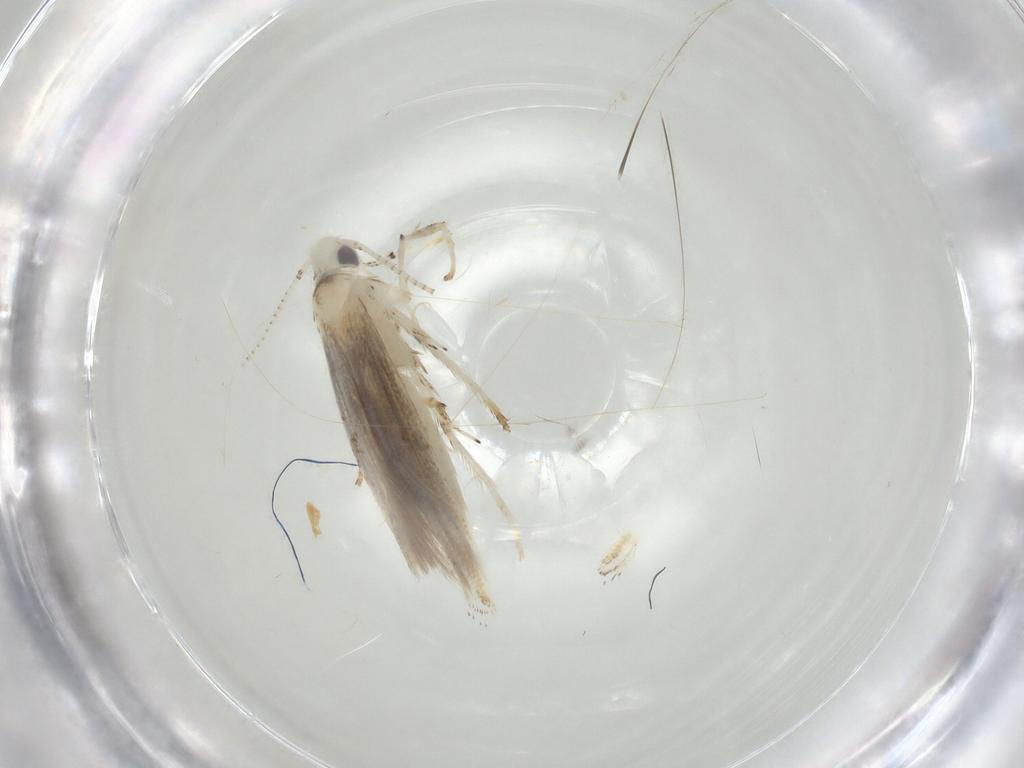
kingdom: Animalia
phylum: Arthropoda
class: Insecta
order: Lepidoptera
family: Gracillariidae
